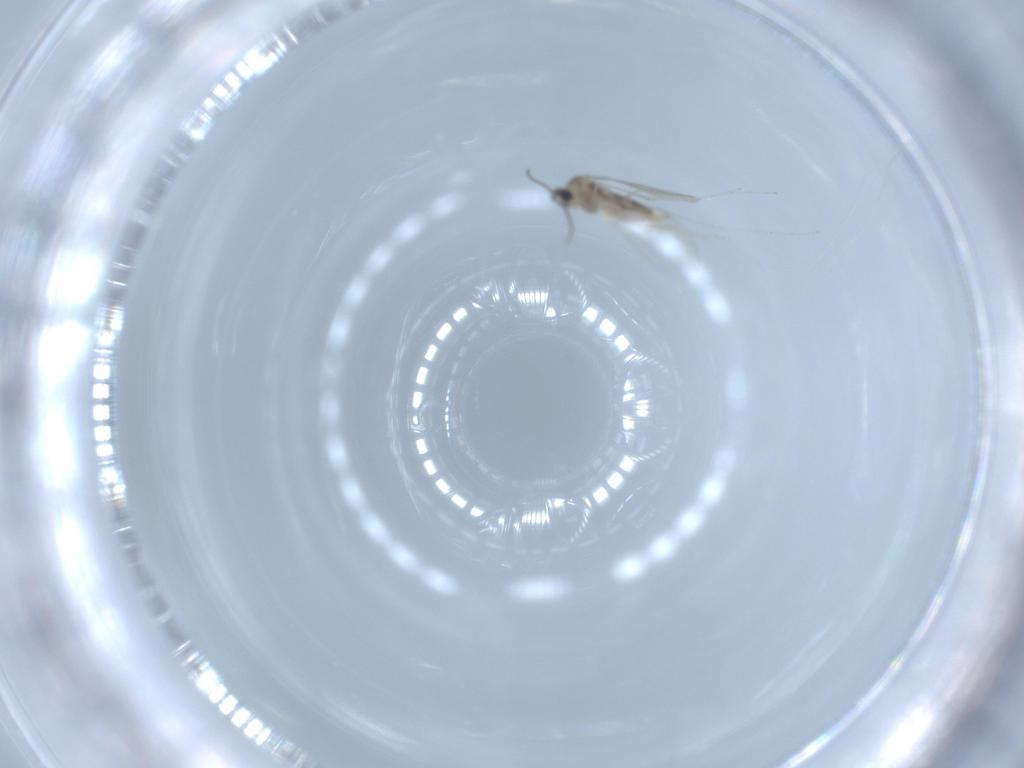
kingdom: Animalia
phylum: Arthropoda
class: Insecta
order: Diptera
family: Cecidomyiidae
